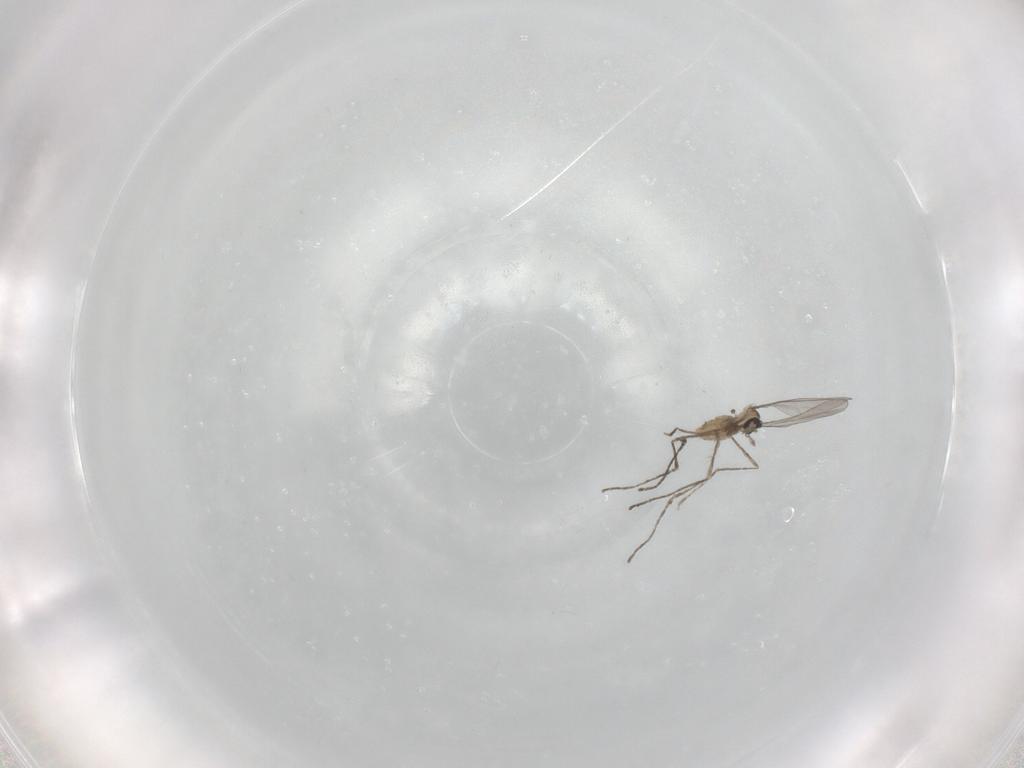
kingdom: Animalia
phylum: Arthropoda
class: Insecta
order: Diptera
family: Cecidomyiidae
